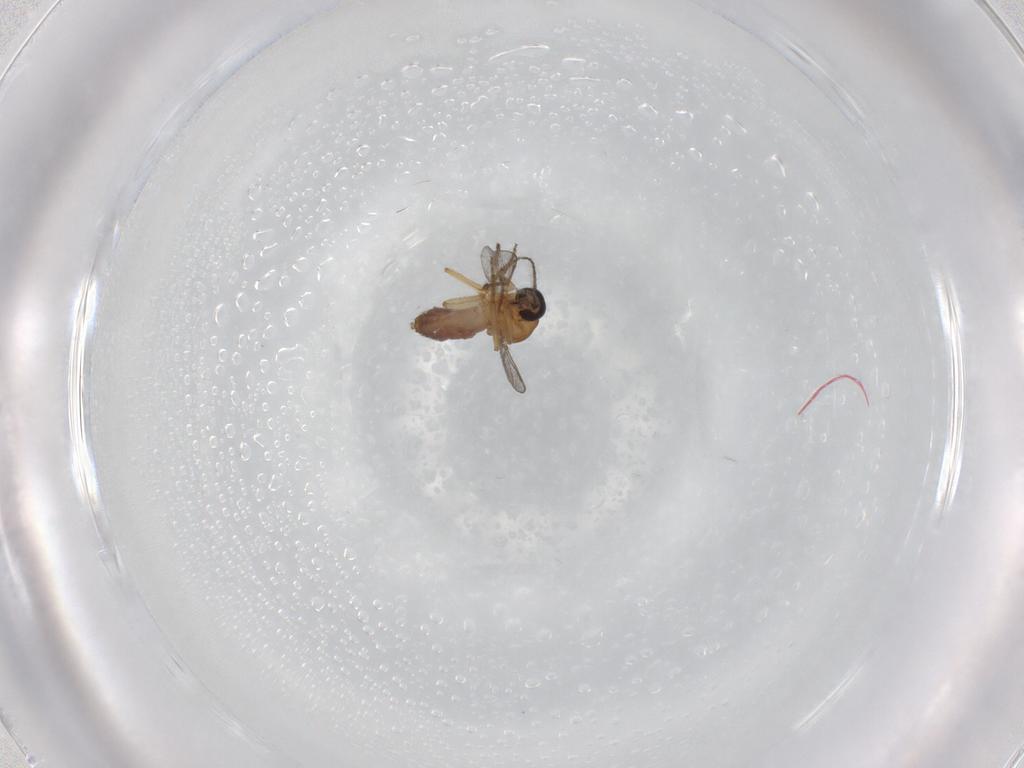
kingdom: Animalia
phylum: Arthropoda
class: Insecta
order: Diptera
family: Ceratopogonidae
